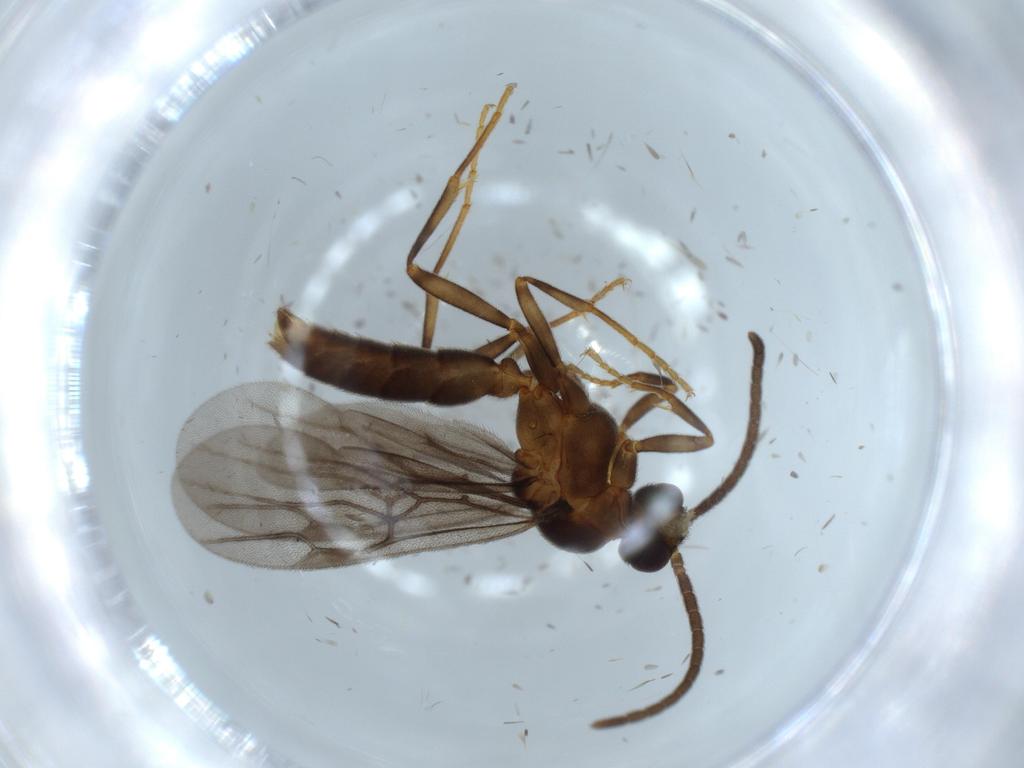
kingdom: Animalia
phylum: Arthropoda
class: Insecta
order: Hymenoptera
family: Formicidae
